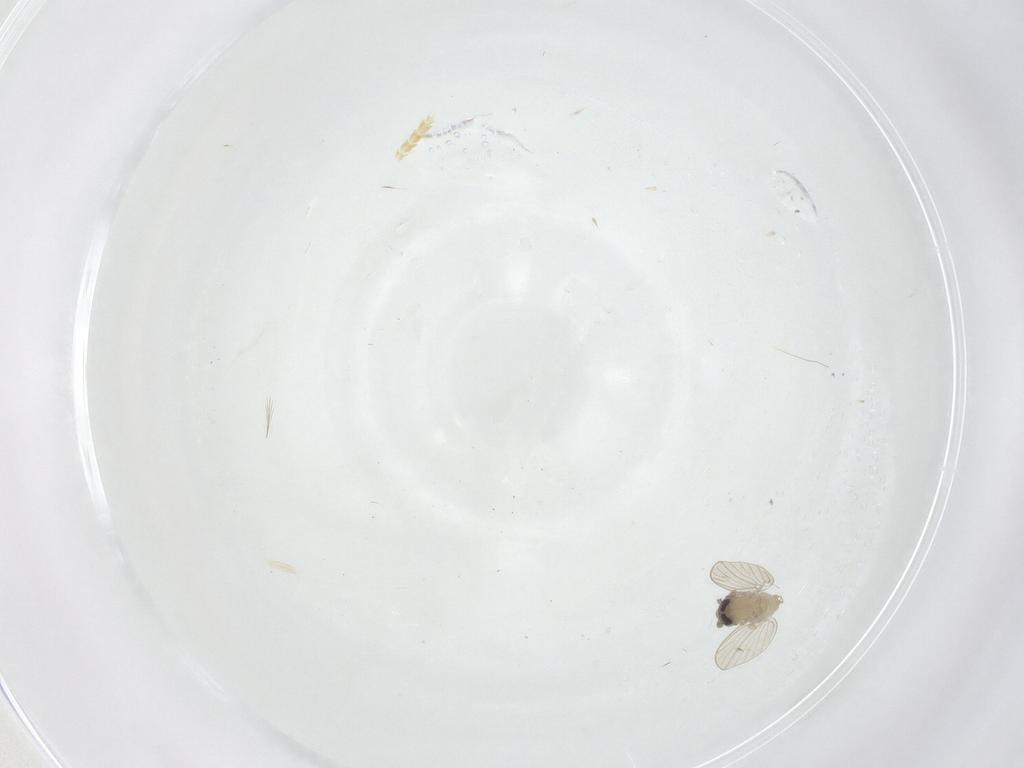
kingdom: Animalia
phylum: Arthropoda
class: Insecta
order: Diptera
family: Psychodidae
